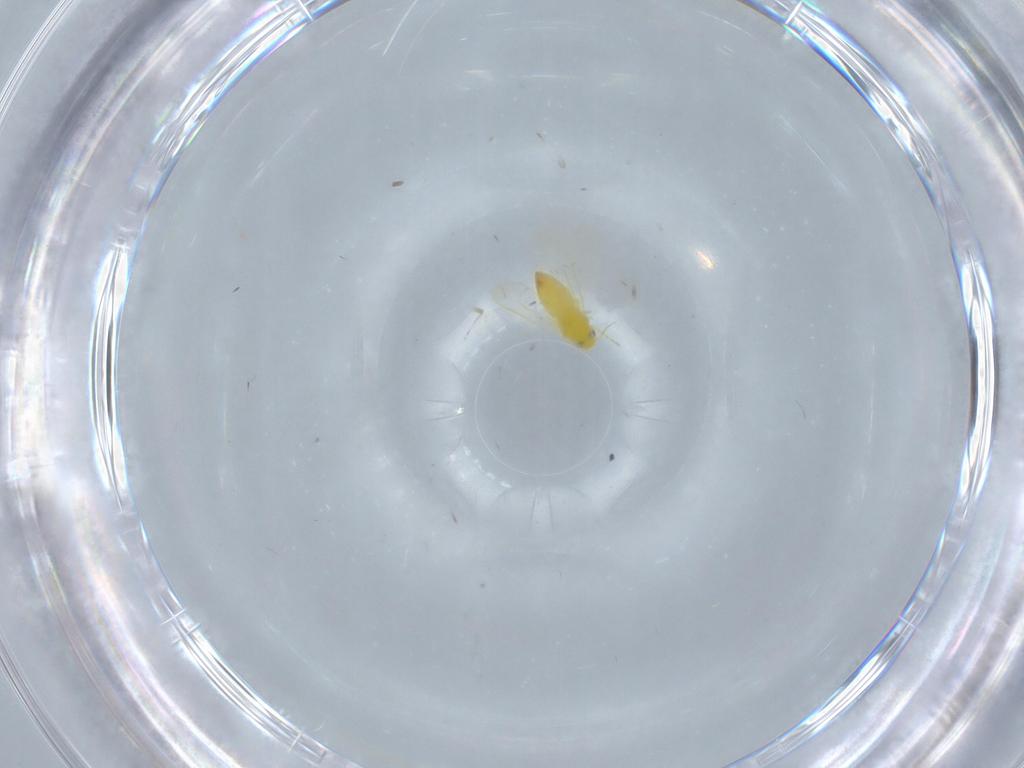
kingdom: Animalia
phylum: Arthropoda
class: Insecta
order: Hemiptera
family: Aleyrodidae
